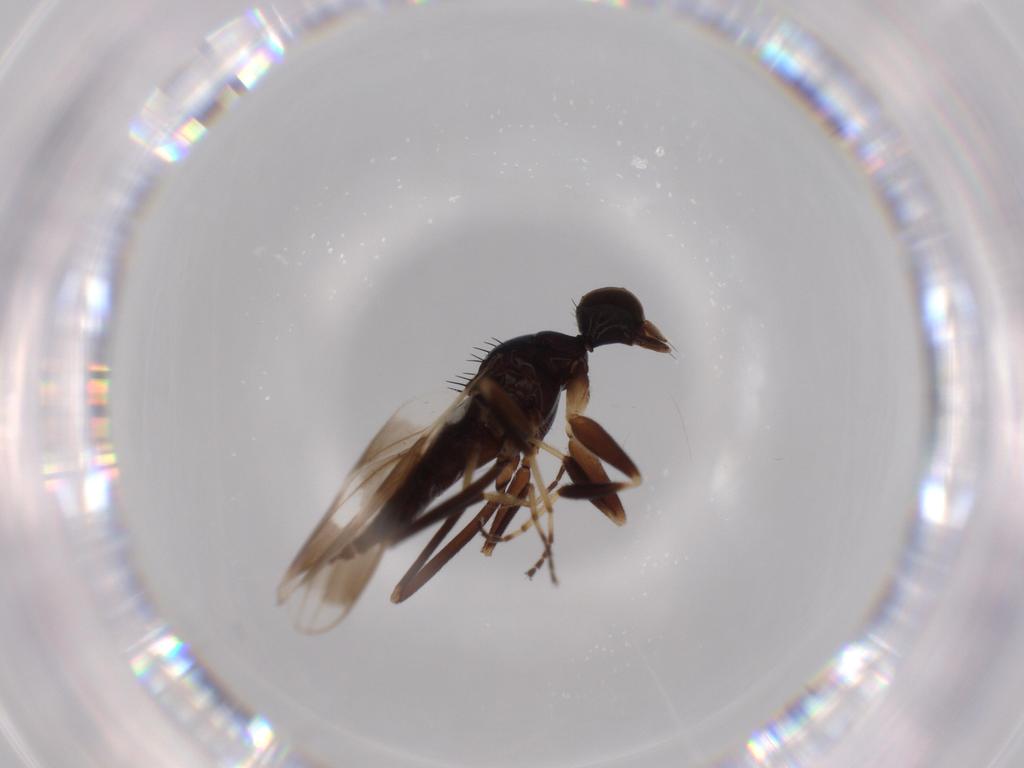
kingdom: Animalia
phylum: Arthropoda
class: Insecta
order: Diptera
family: Hybotidae
